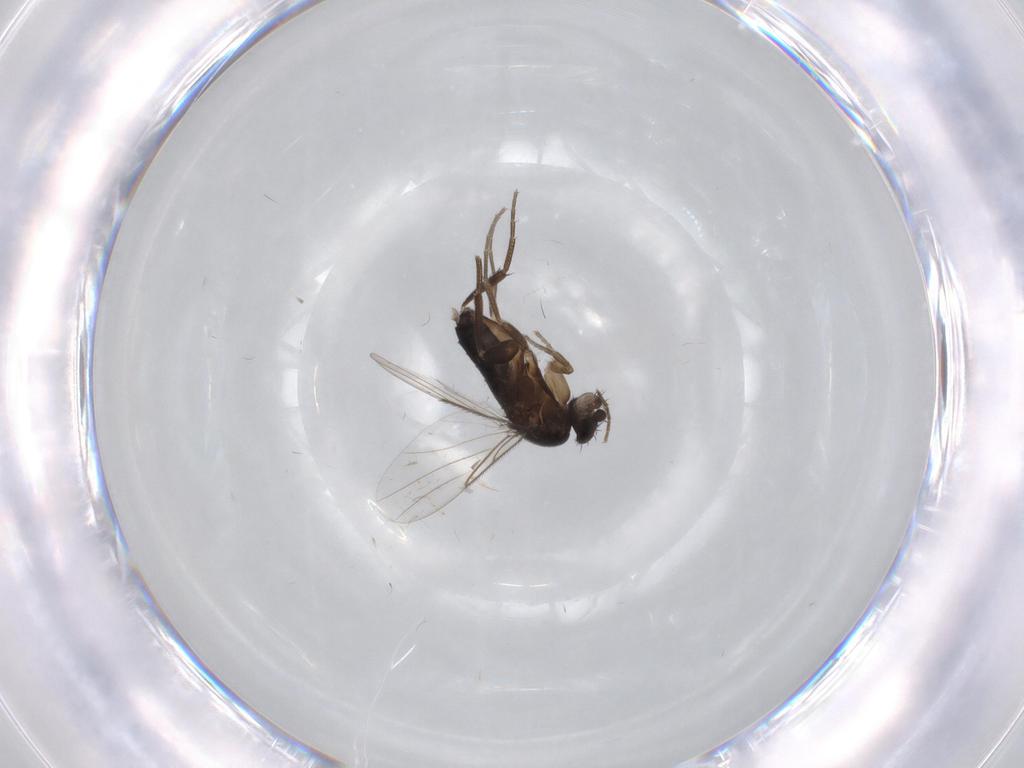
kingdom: Animalia
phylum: Arthropoda
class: Insecta
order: Diptera
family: Phoridae
